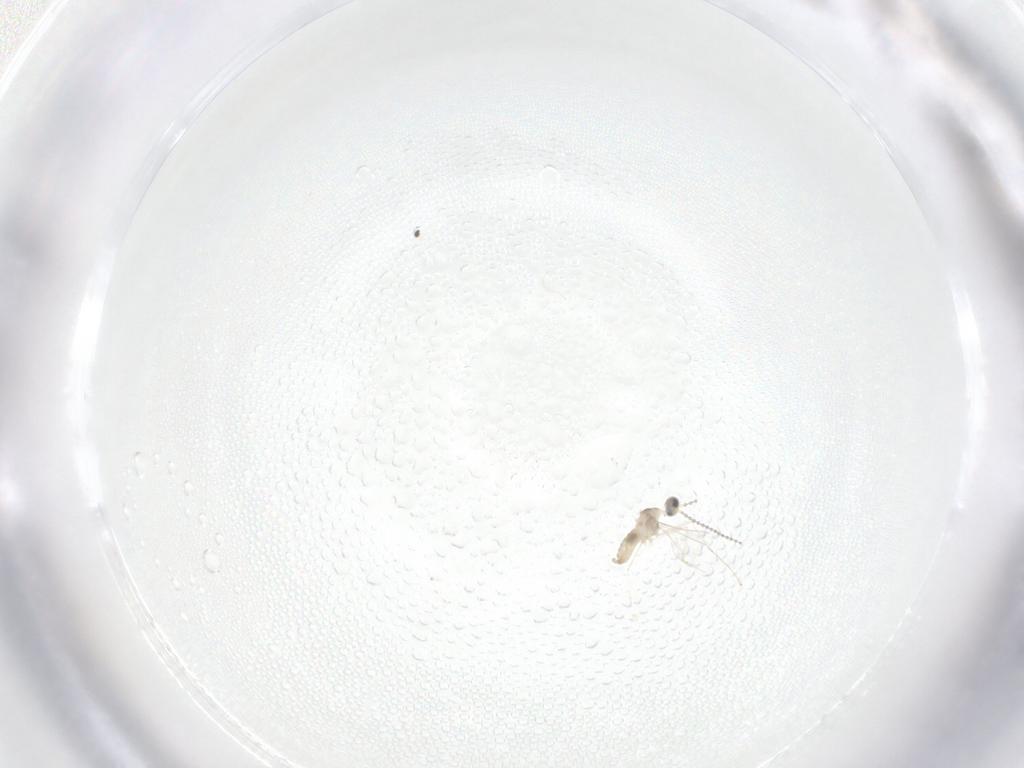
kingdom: Animalia
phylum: Arthropoda
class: Insecta
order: Diptera
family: Cecidomyiidae
